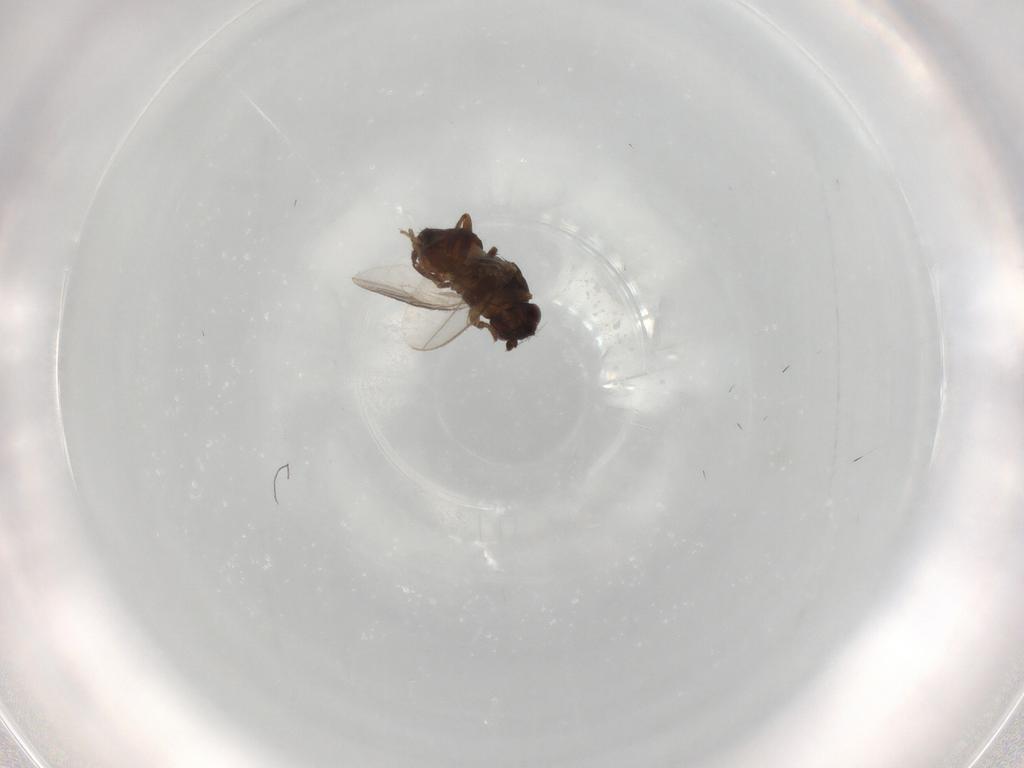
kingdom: Animalia
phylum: Arthropoda
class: Insecta
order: Diptera
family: Sphaeroceridae
